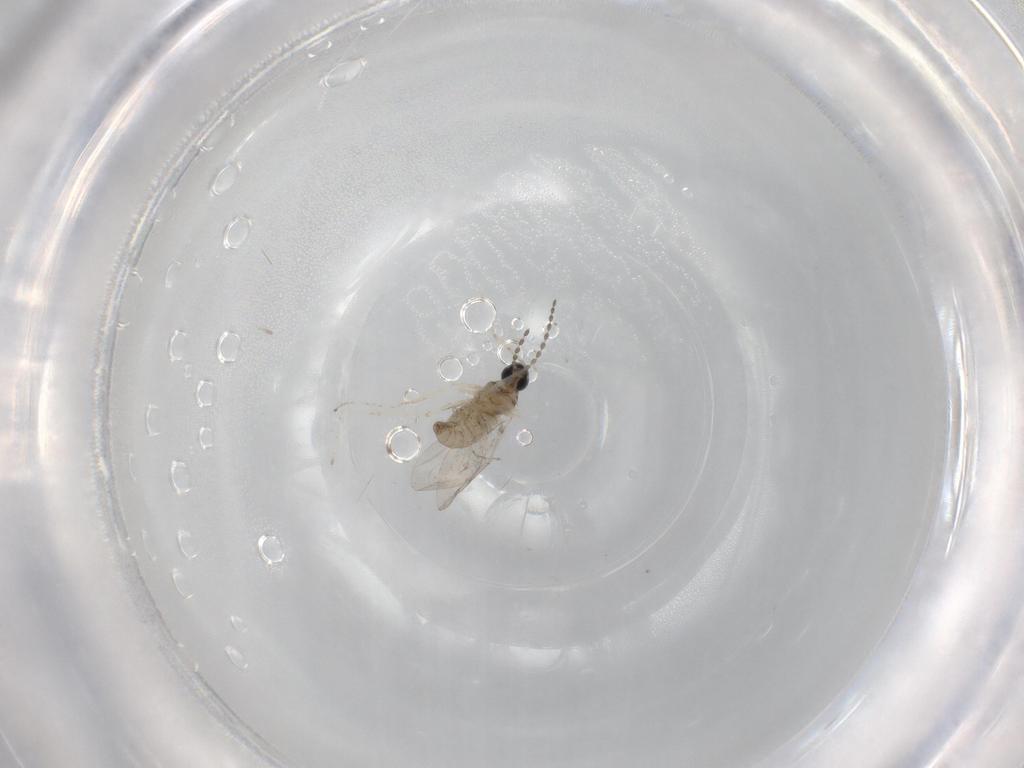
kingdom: Animalia
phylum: Arthropoda
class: Insecta
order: Diptera
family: Cecidomyiidae
